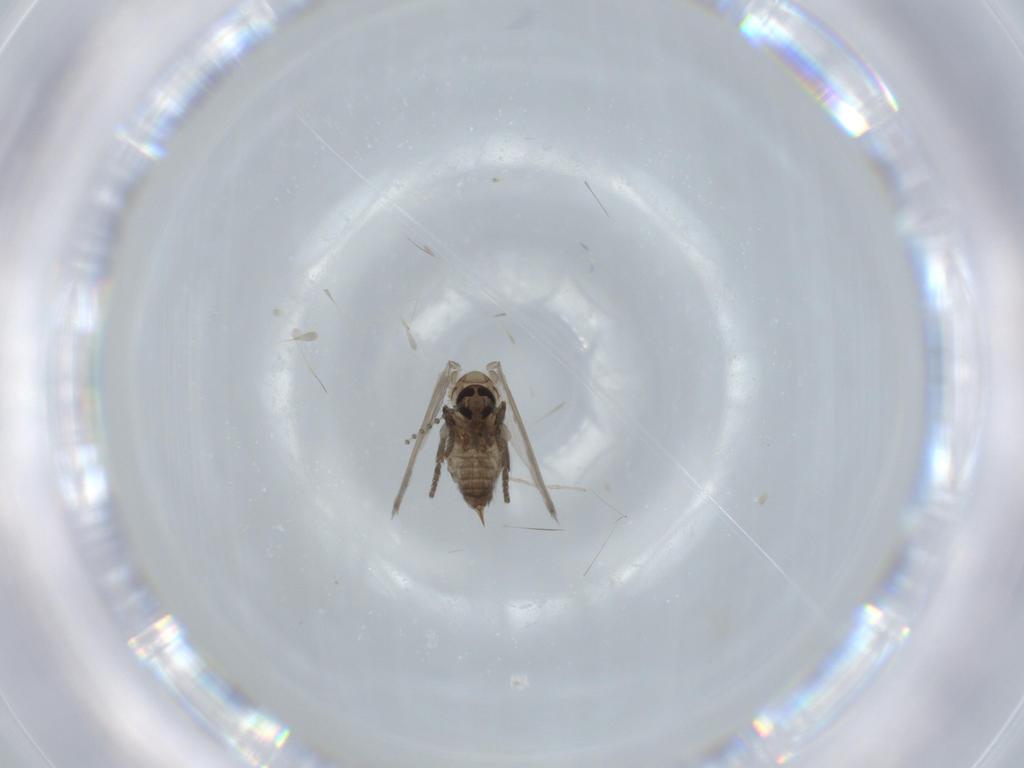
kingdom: Animalia
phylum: Arthropoda
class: Insecta
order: Diptera
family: Psychodidae
